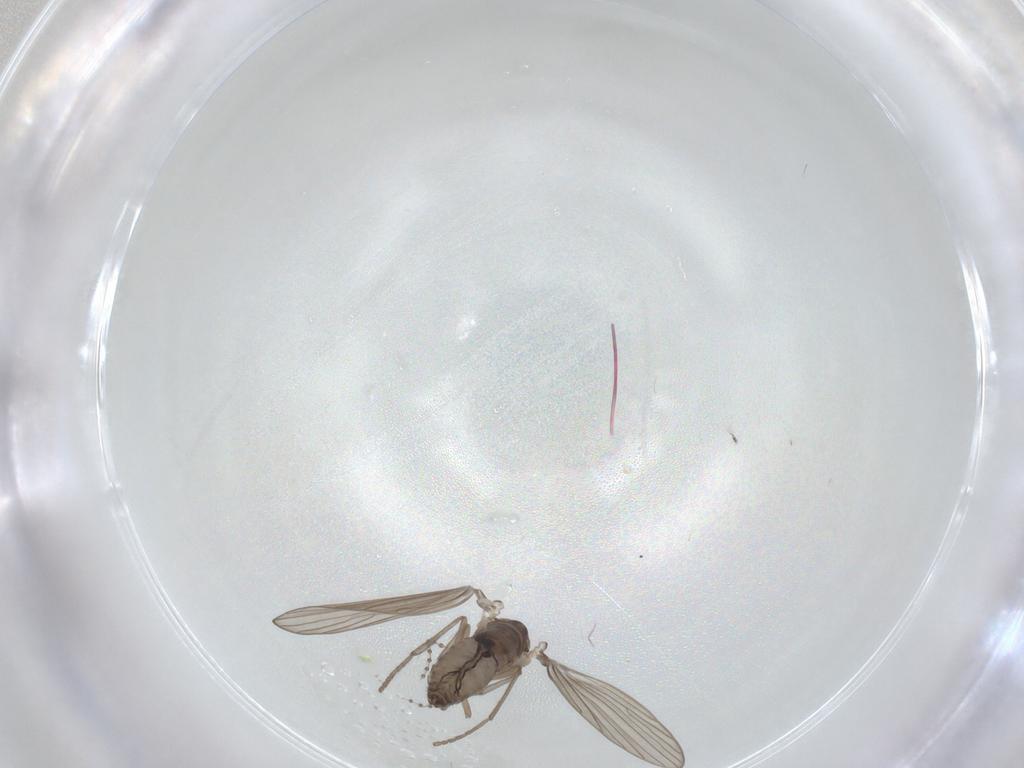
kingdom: Animalia
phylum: Arthropoda
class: Insecta
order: Diptera
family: Psychodidae
